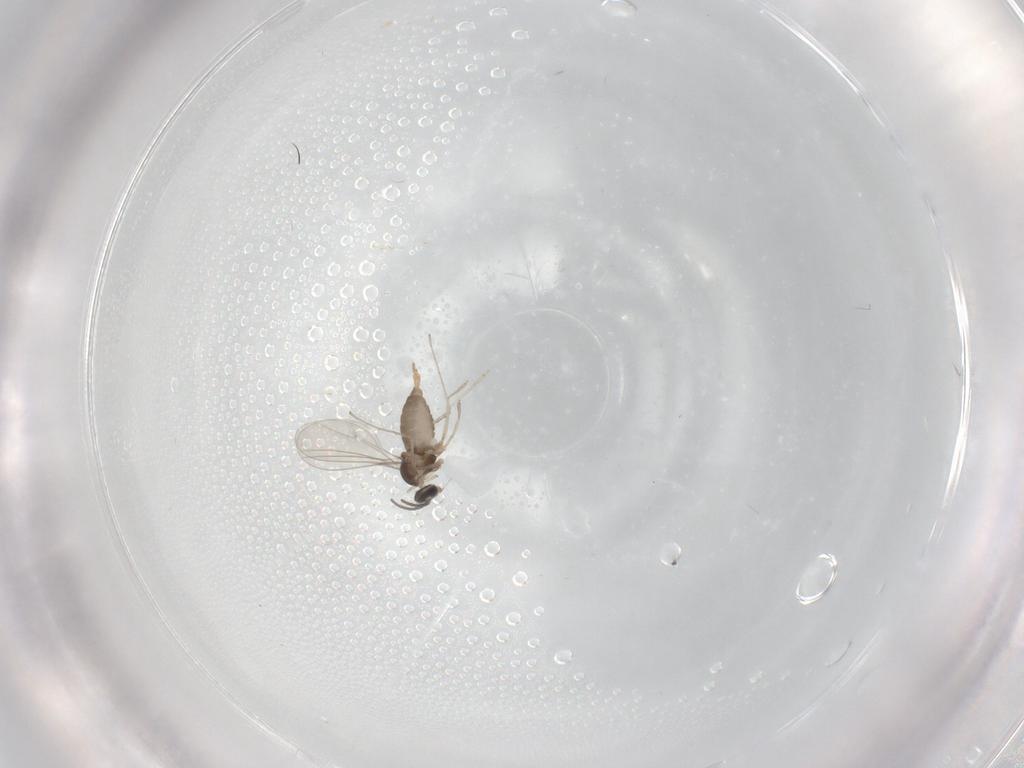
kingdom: Animalia
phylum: Arthropoda
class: Insecta
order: Diptera
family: Cecidomyiidae
